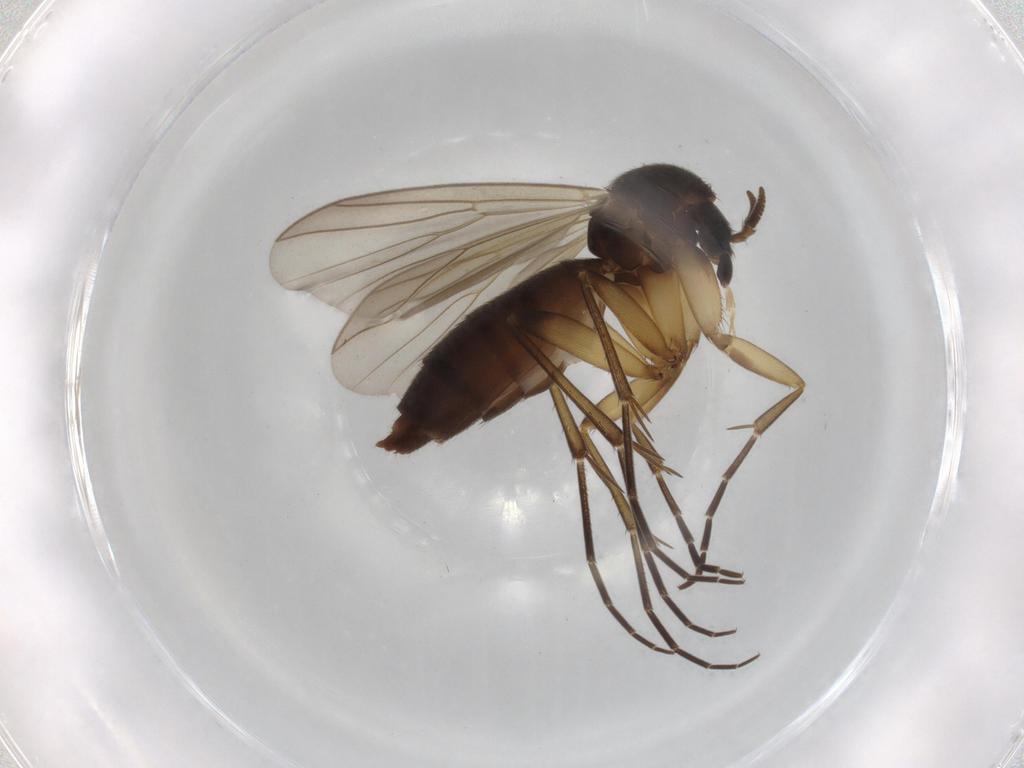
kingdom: Animalia
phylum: Arthropoda
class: Insecta
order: Diptera
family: Mycetophilidae
